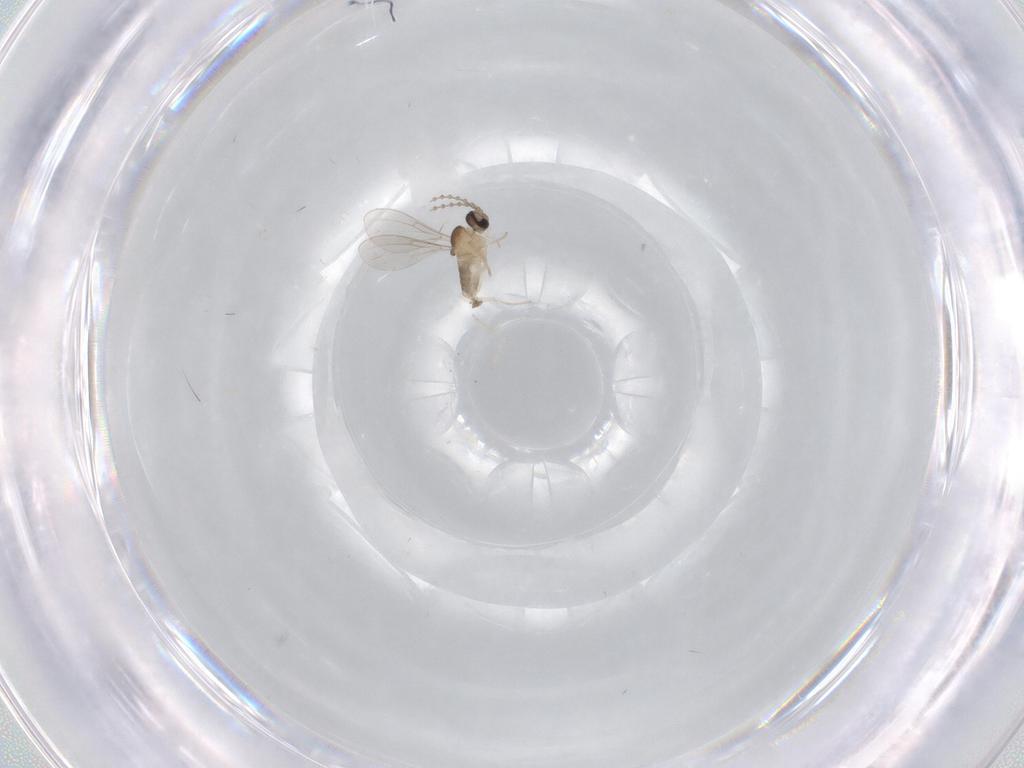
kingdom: Animalia
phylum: Arthropoda
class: Insecta
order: Diptera
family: Cecidomyiidae
